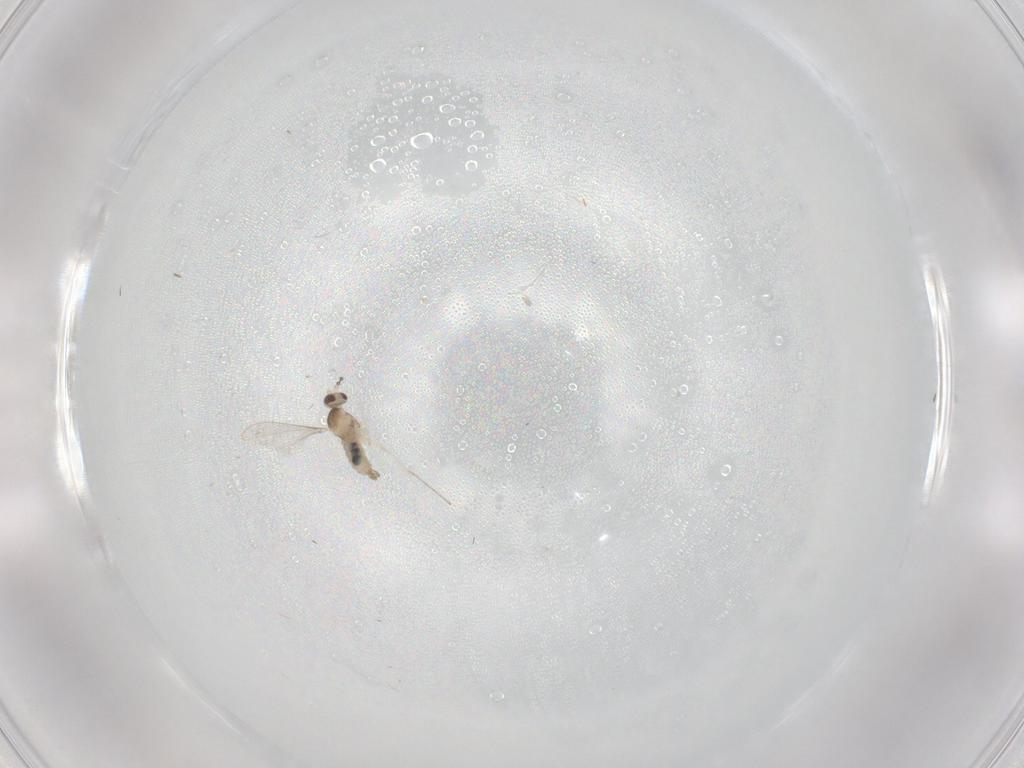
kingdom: Animalia
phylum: Arthropoda
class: Insecta
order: Diptera
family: Cecidomyiidae
